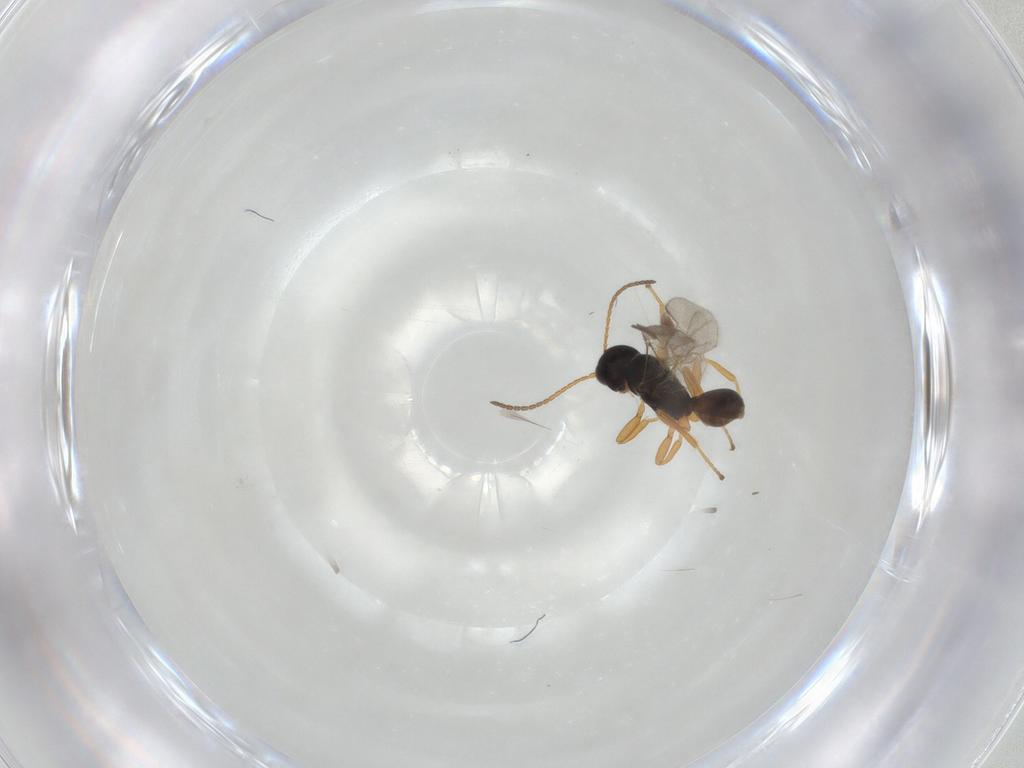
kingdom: Animalia
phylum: Arthropoda
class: Insecta
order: Hymenoptera
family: Braconidae
